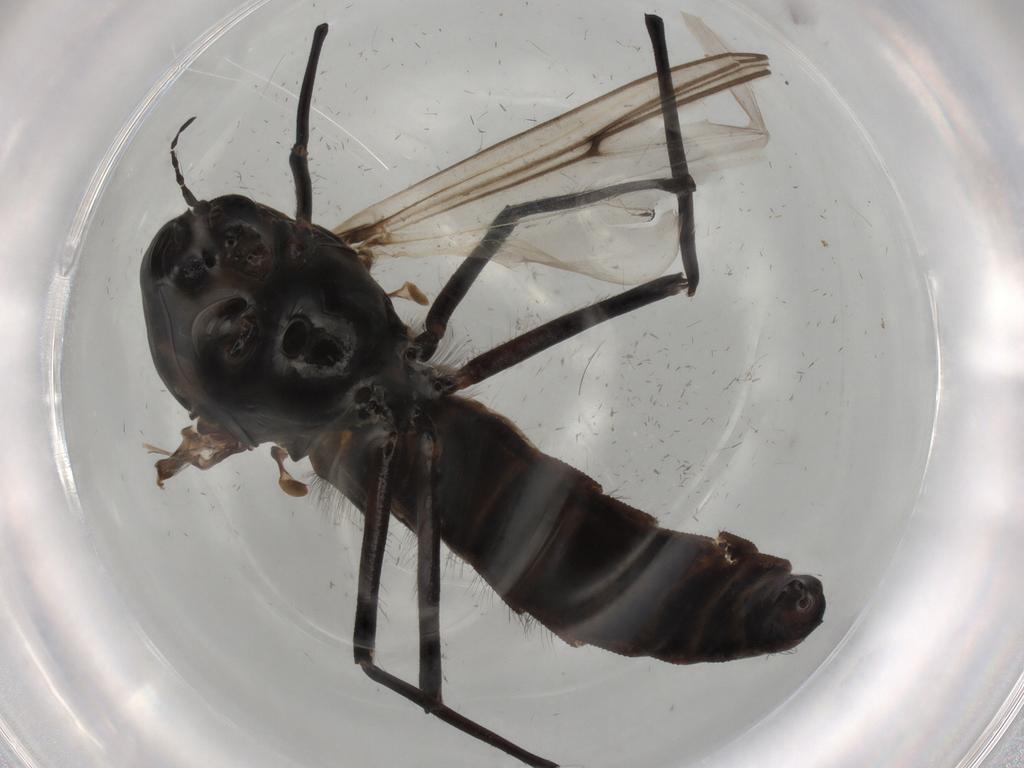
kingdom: Animalia
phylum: Arthropoda
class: Insecta
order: Diptera
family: Chironomidae
